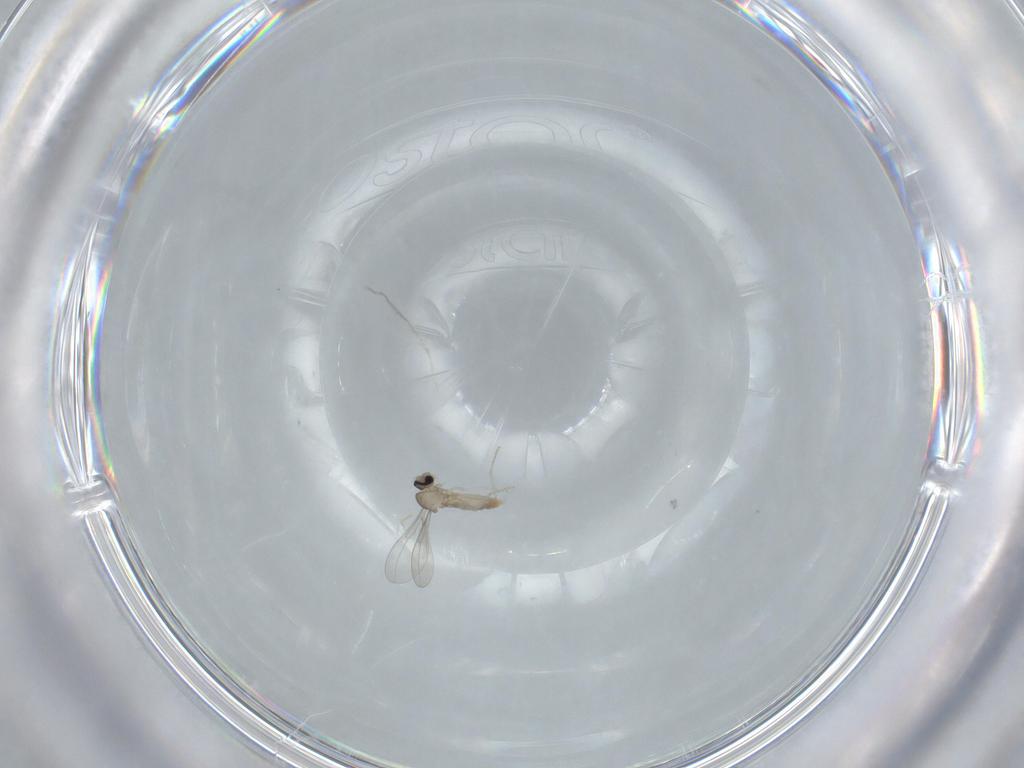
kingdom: Animalia
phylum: Arthropoda
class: Insecta
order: Diptera
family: Cecidomyiidae
